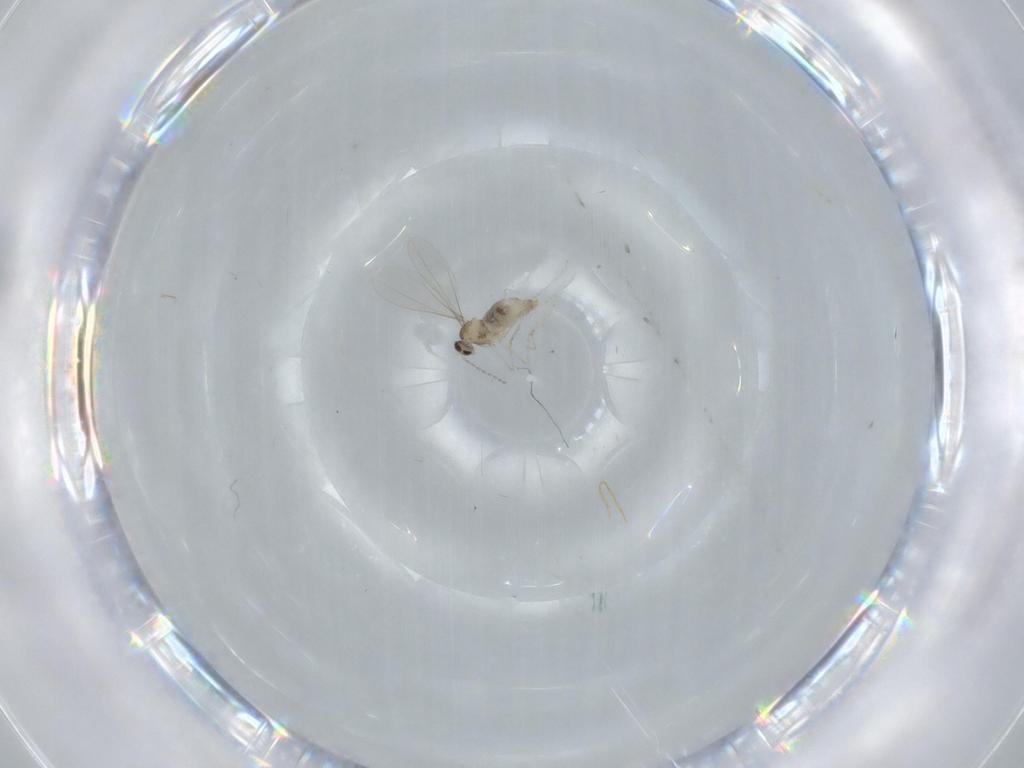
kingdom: Animalia
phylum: Arthropoda
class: Insecta
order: Diptera
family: Cecidomyiidae
